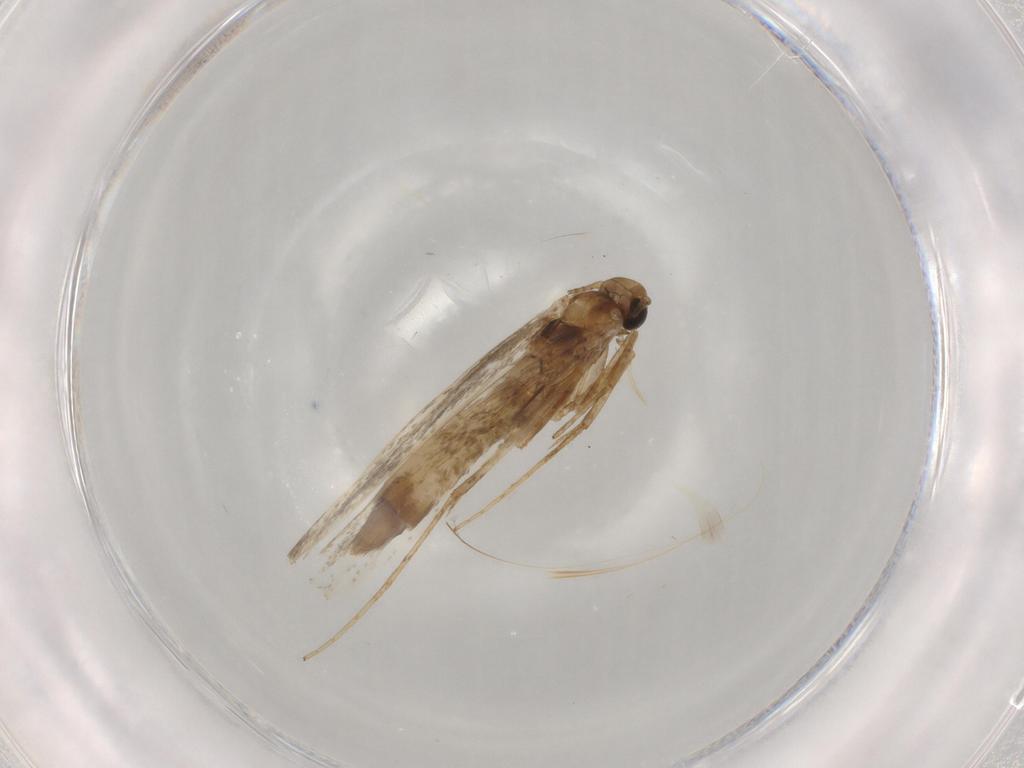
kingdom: Animalia
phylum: Arthropoda
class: Insecta
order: Lepidoptera
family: Gracillariidae
